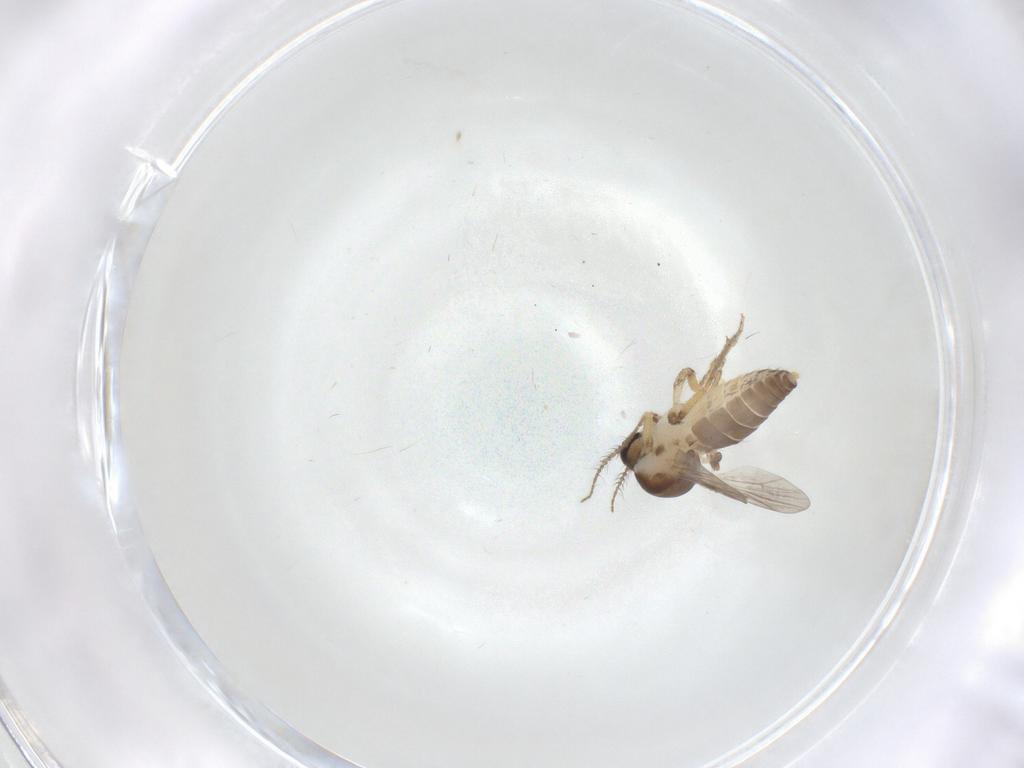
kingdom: Animalia
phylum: Arthropoda
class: Insecta
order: Diptera
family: Ceratopogonidae
